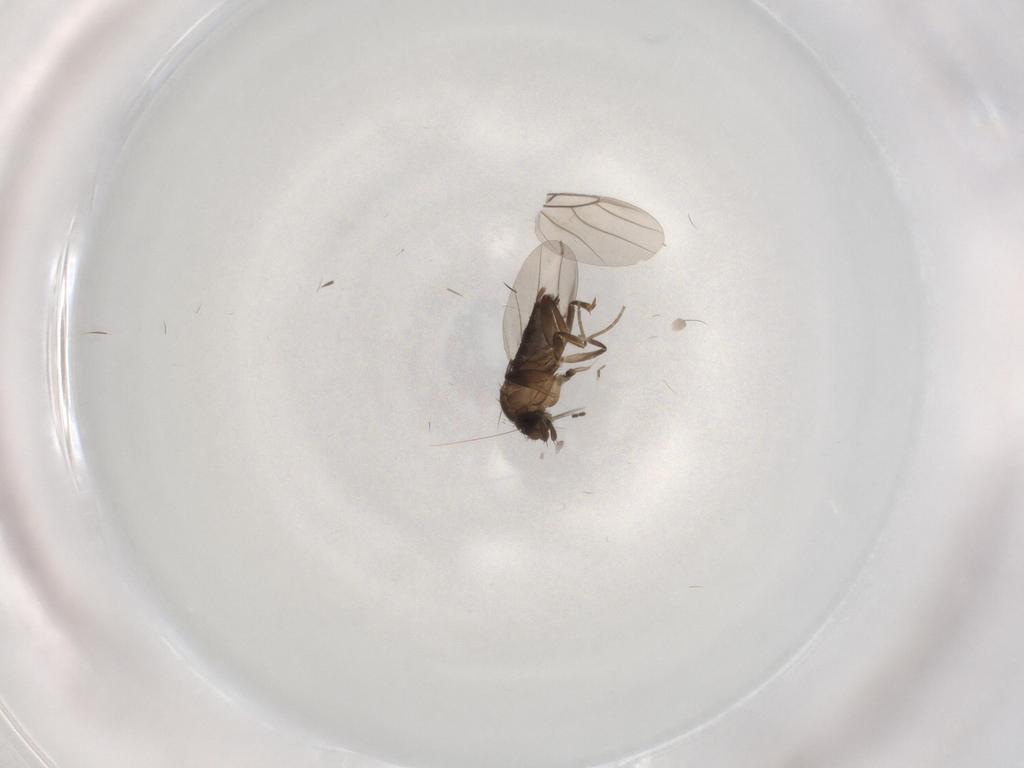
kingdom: Animalia
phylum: Arthropoda
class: Insecta
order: Diptera
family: Phoridae
